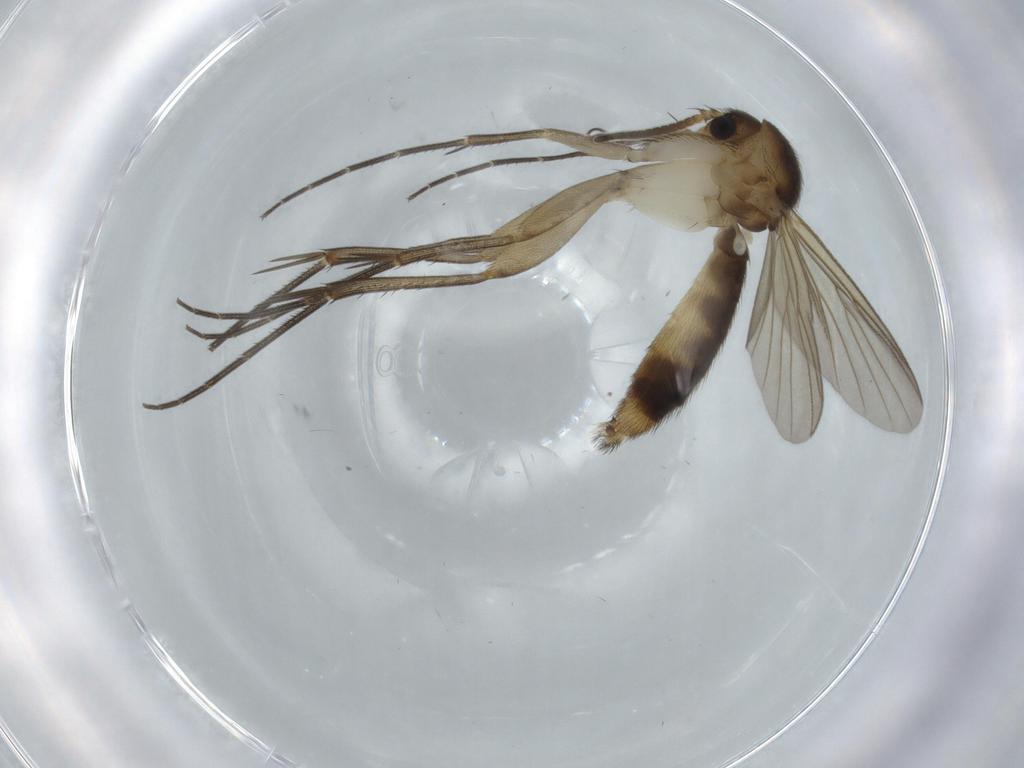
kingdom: Animalia
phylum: Arthropoda
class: Insecta
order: Diptera
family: Mycetophilidae
